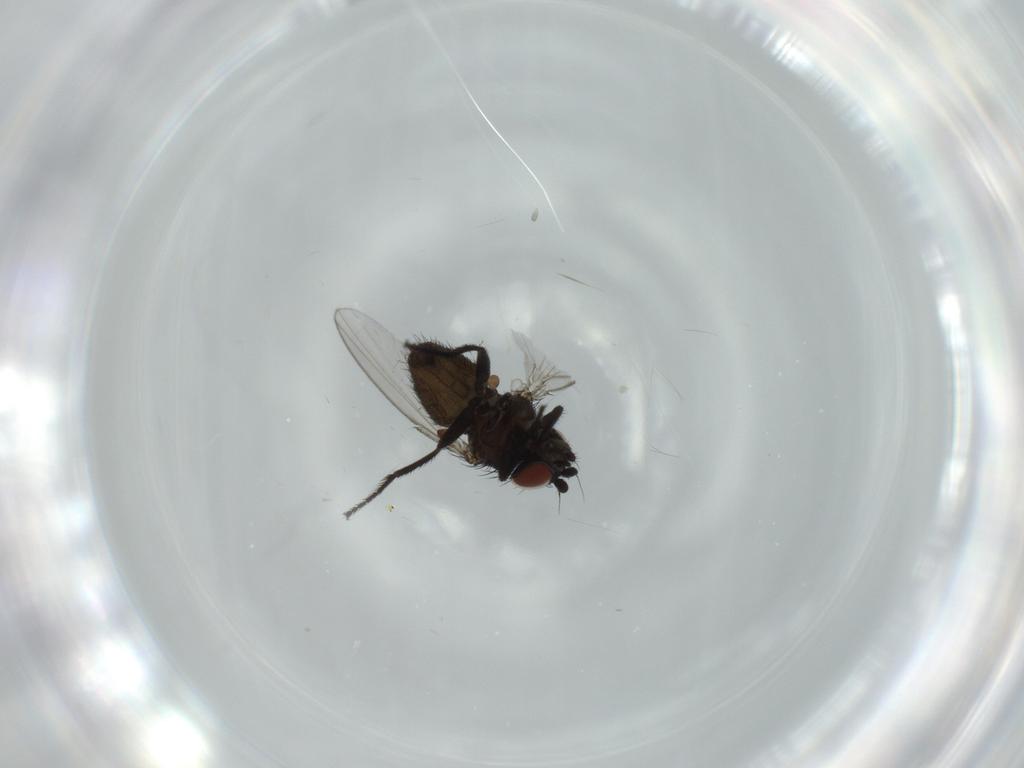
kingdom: Animalia
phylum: Arthropoda
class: Insecta
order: Diptera
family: Milichiidae
